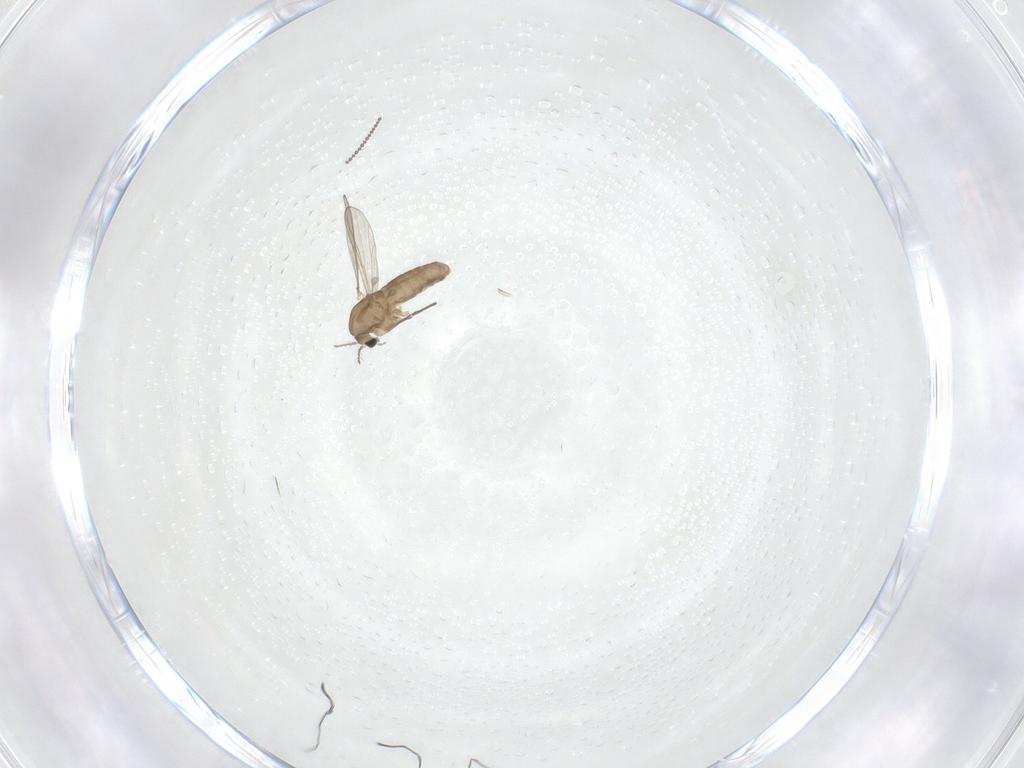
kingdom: Animalia
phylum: Arthropoda
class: Insecta
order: Diptera
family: Chironomidae
